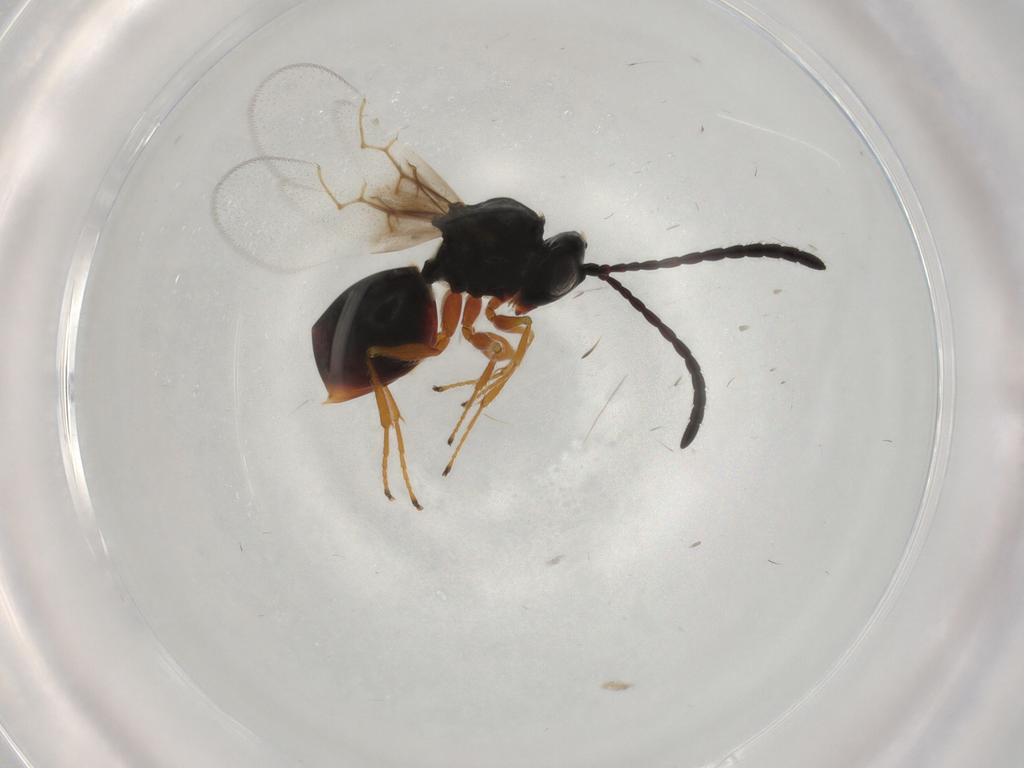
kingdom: Animalia
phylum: Arthropoda
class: Insecta
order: Hymenoptera
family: Figitidae
